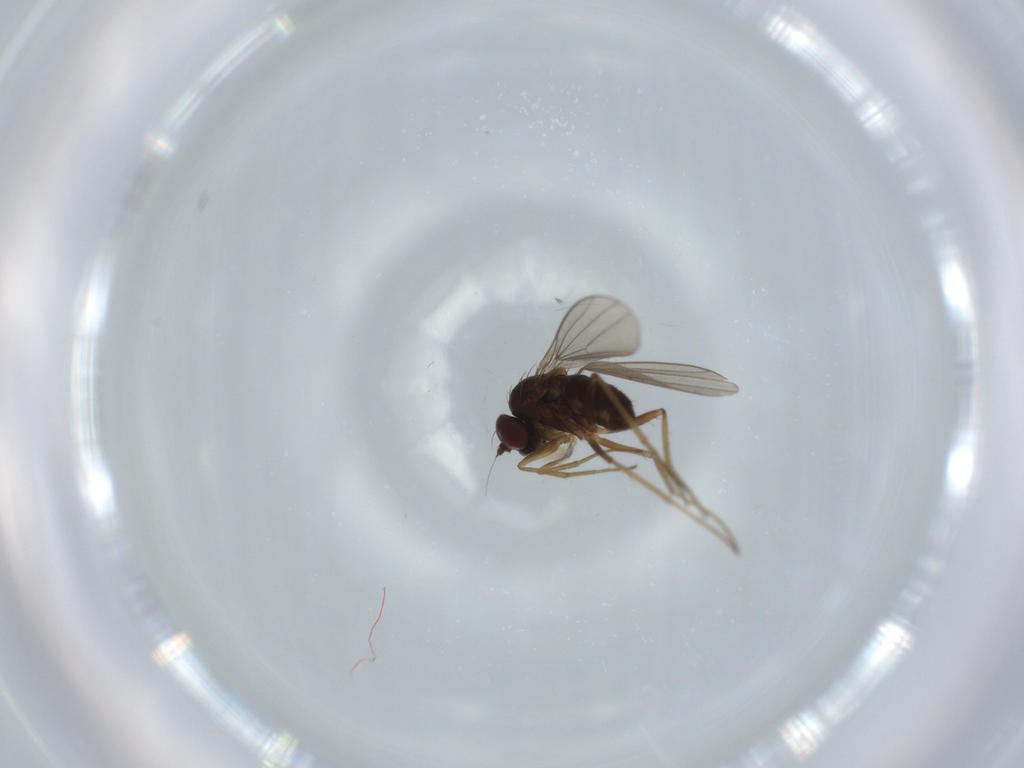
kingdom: Animalia
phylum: Arthropoda
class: Insecta
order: Diptera
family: Dolichopodidae
